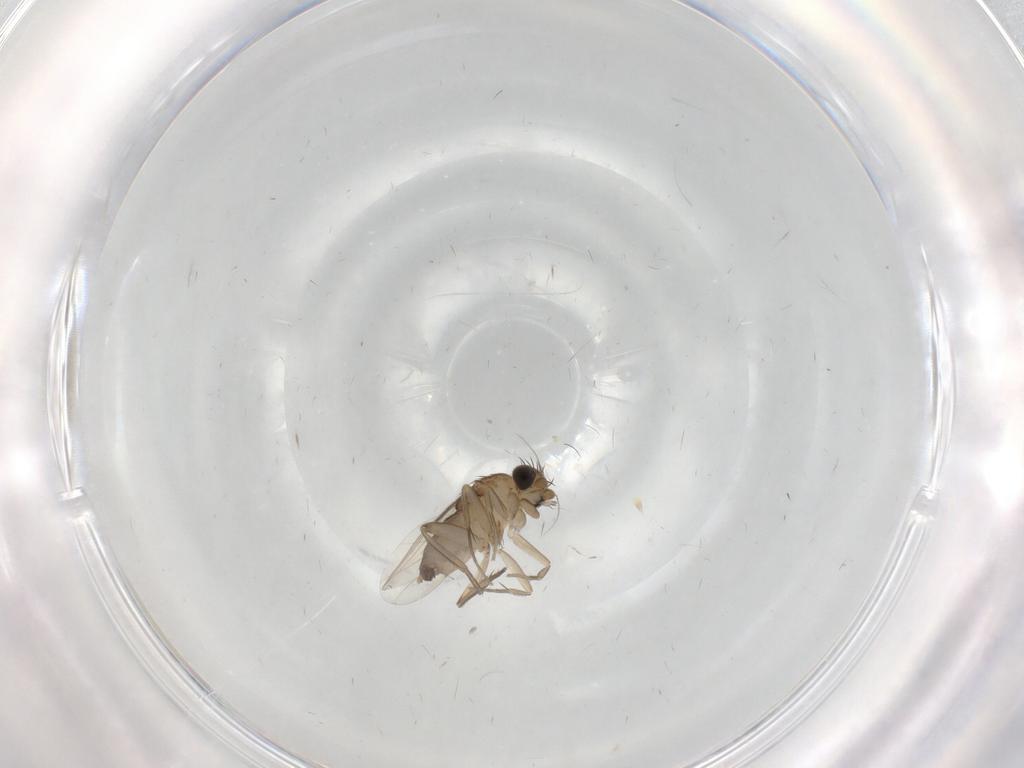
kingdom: Animalia
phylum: Arthropoda
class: Insecta
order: Diptera
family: Phoridae
